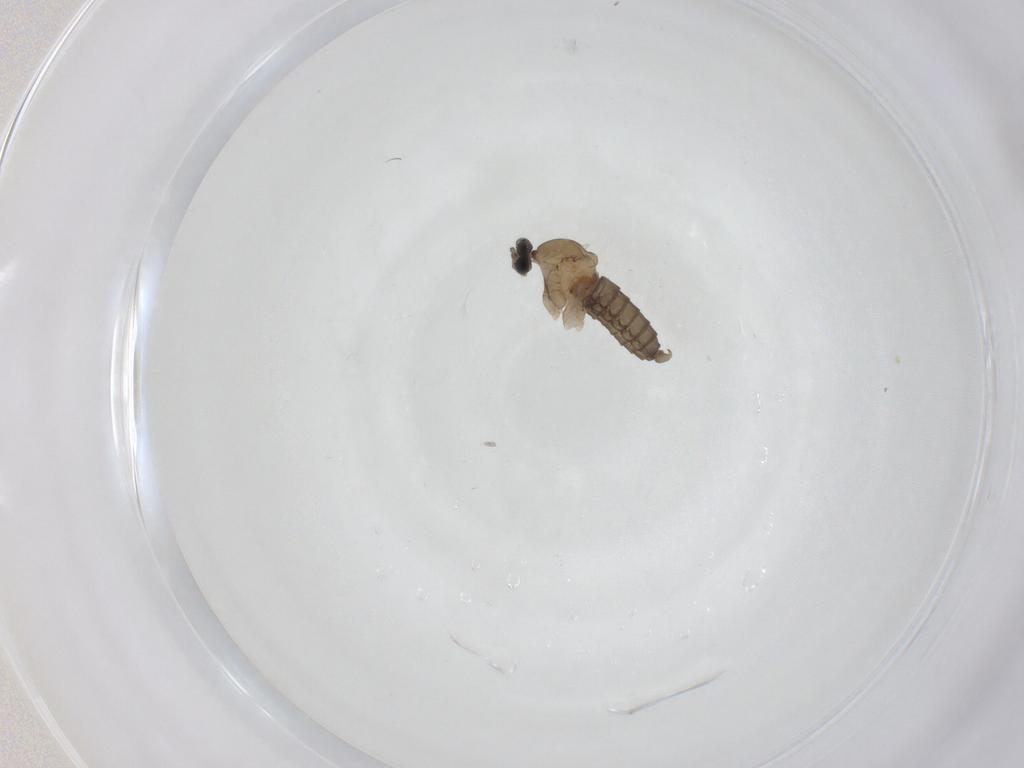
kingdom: Animalia
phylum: Arthropoda
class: Insecta
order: Diptera
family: Cecidomyiidae
